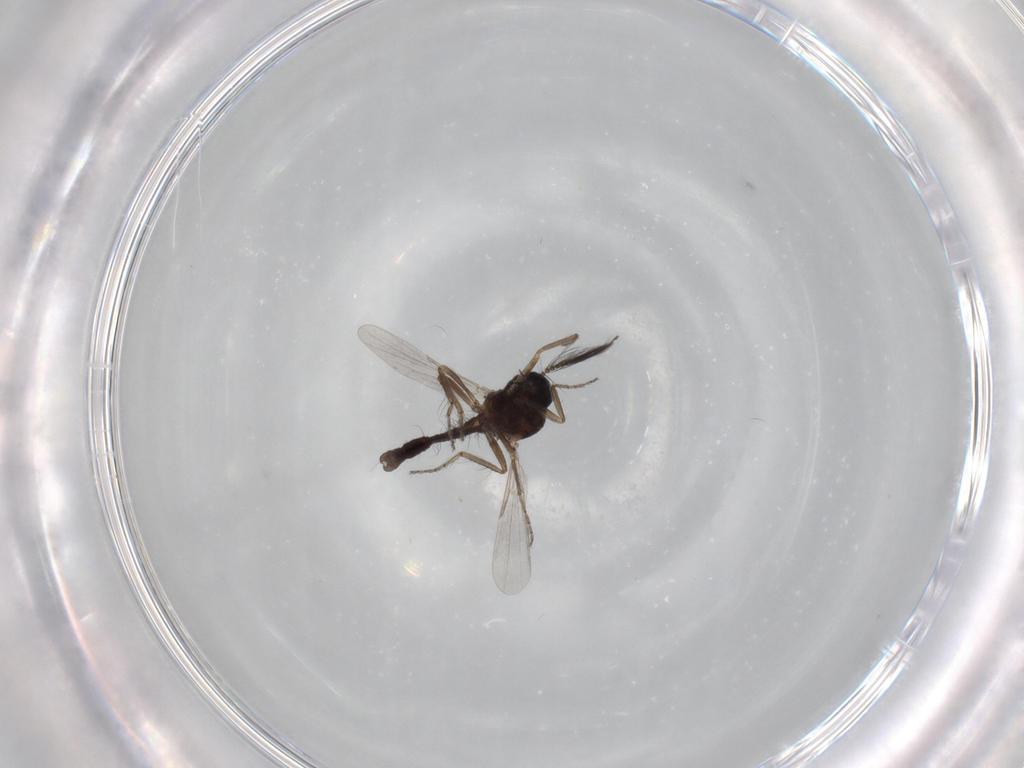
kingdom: Animalia
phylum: Arthropoda
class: Insecta
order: Diptera
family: Ceratopogonidae
